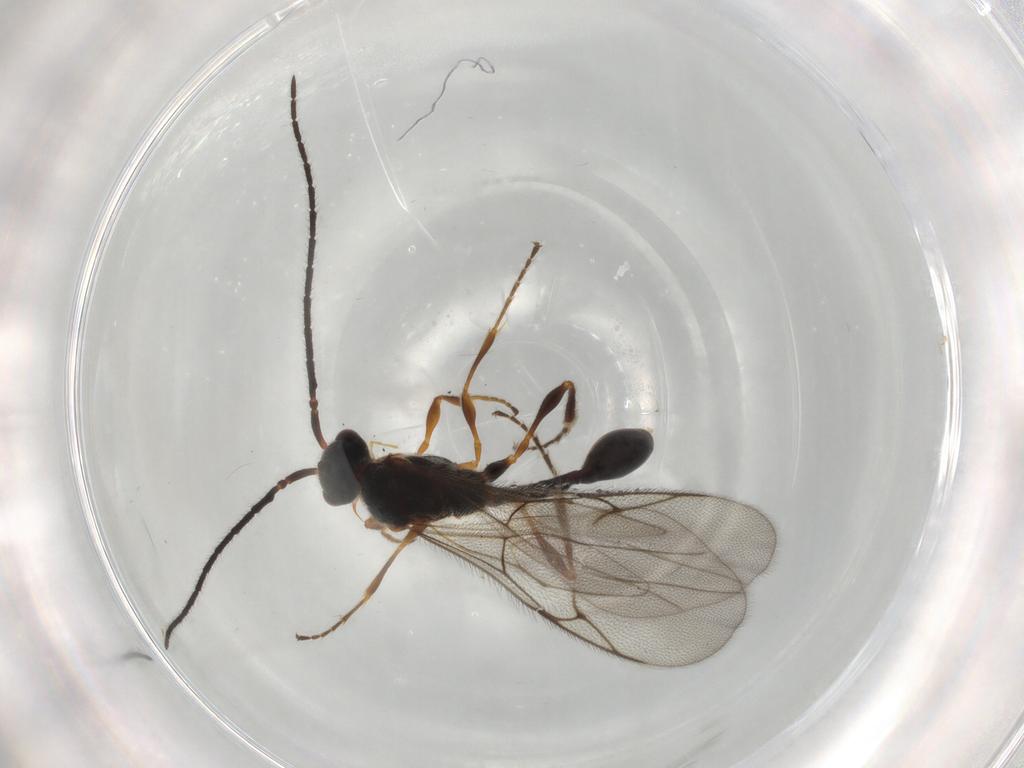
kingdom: Animalia
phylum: Arthropoda
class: Insecta
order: Hymenoptera
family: Diapriidae
